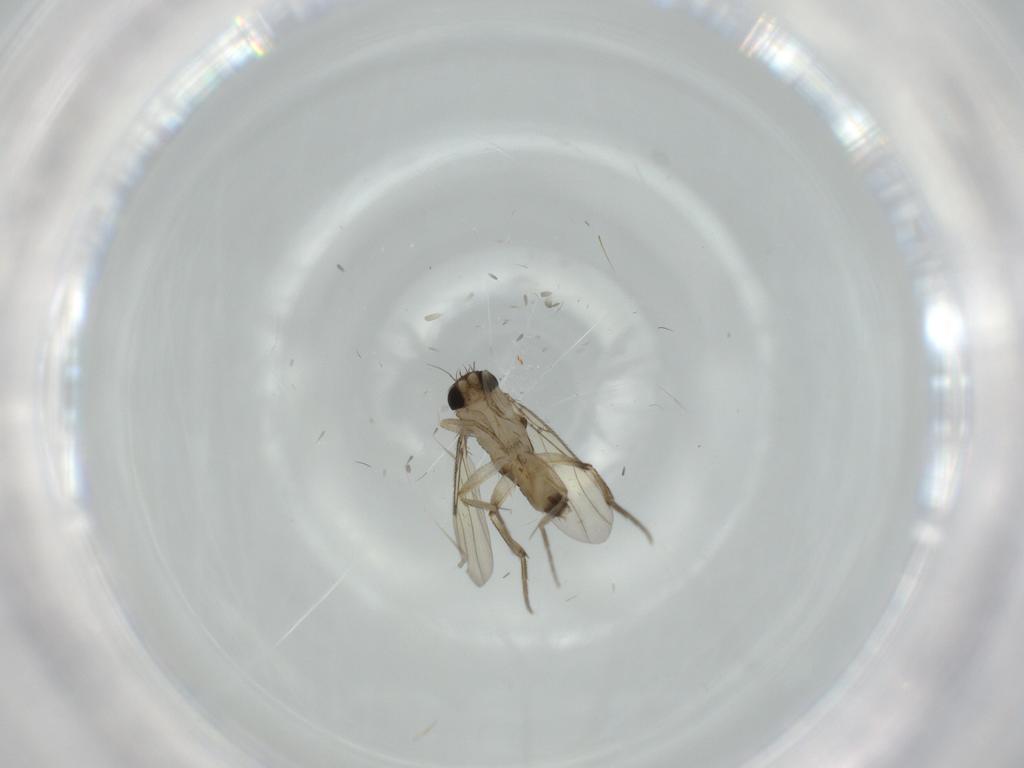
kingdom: Animalia
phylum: Arthropoda
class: Insecta
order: Diptera
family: Phoridae
